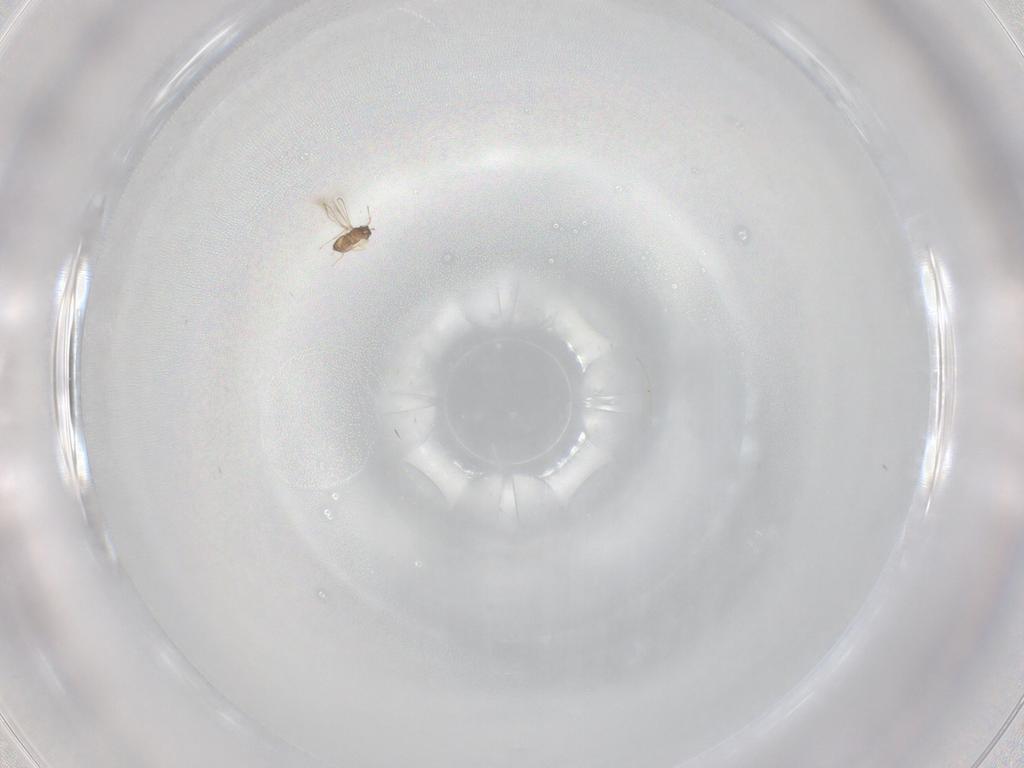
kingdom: Animalia
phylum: Arthropoda
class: Insecta
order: Hymenoptera
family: Mymaridae
